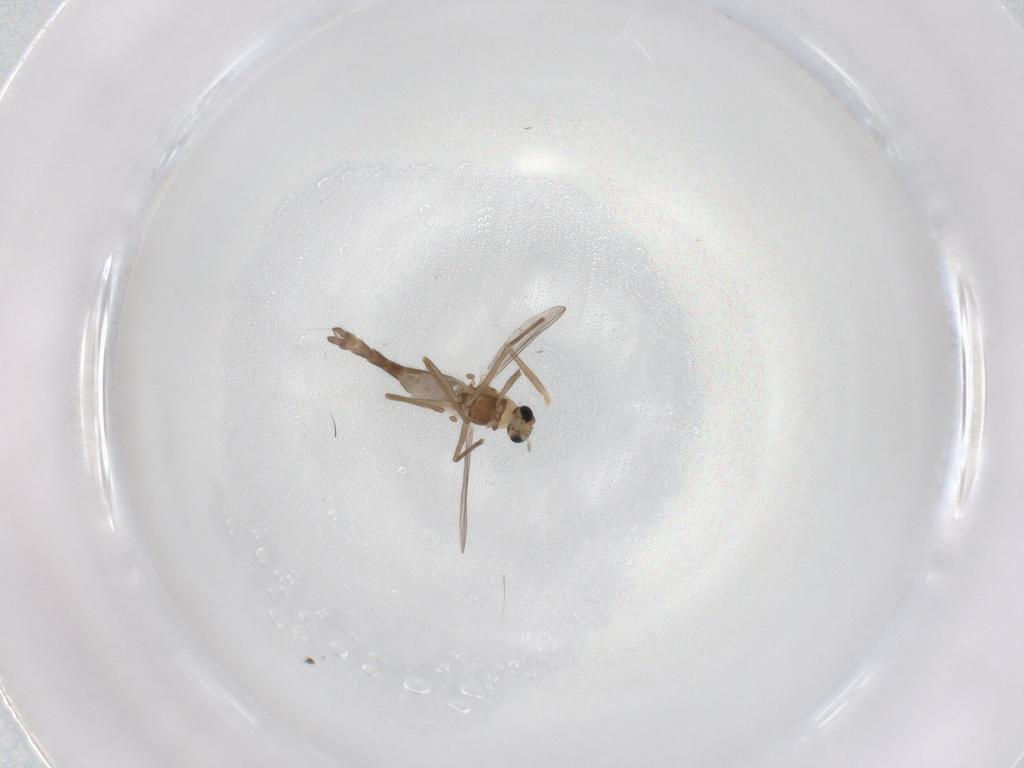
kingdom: Animalia
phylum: Arthropoda
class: Insecta
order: Diptera
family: Chironomidae
